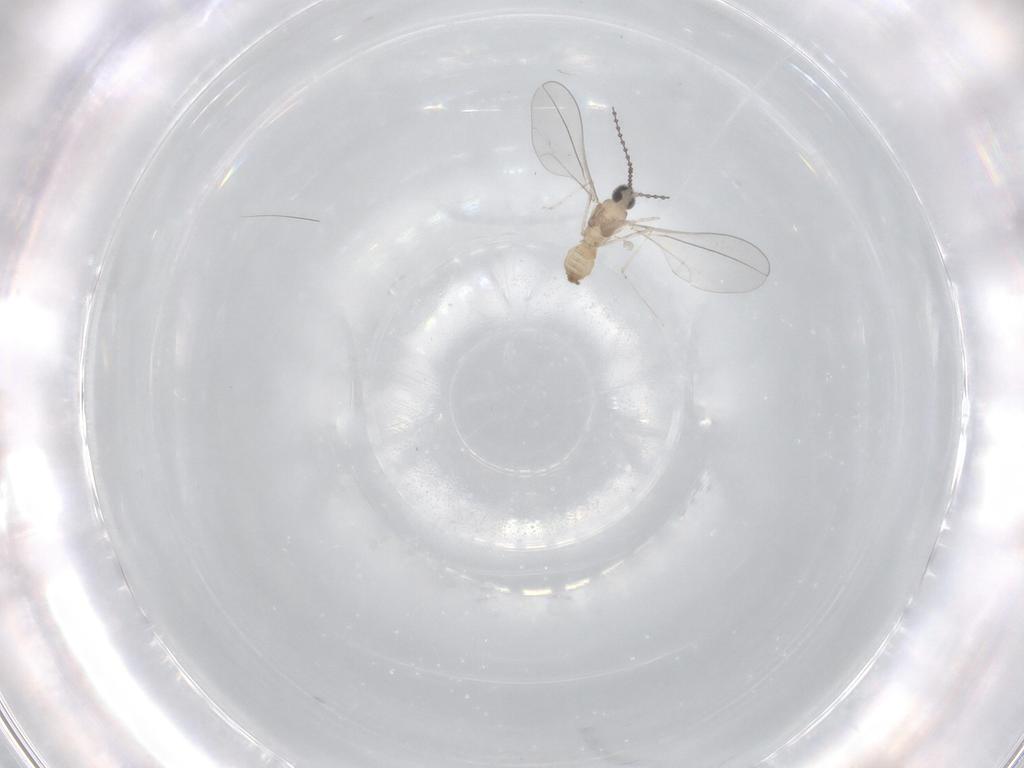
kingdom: Animalia
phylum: Arthropoda
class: Insecta
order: Diptera
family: Cecidomyiidae
